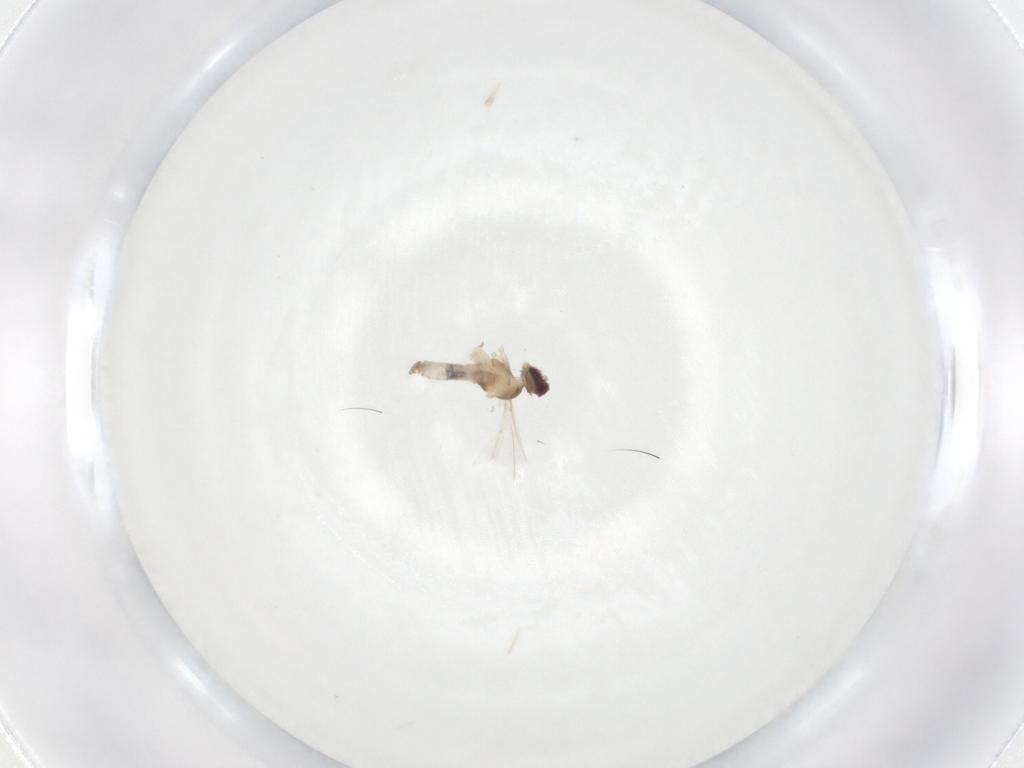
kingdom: Animalia
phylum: Arthropoda
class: Insecta
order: Diptera
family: Cecidomyiidae
